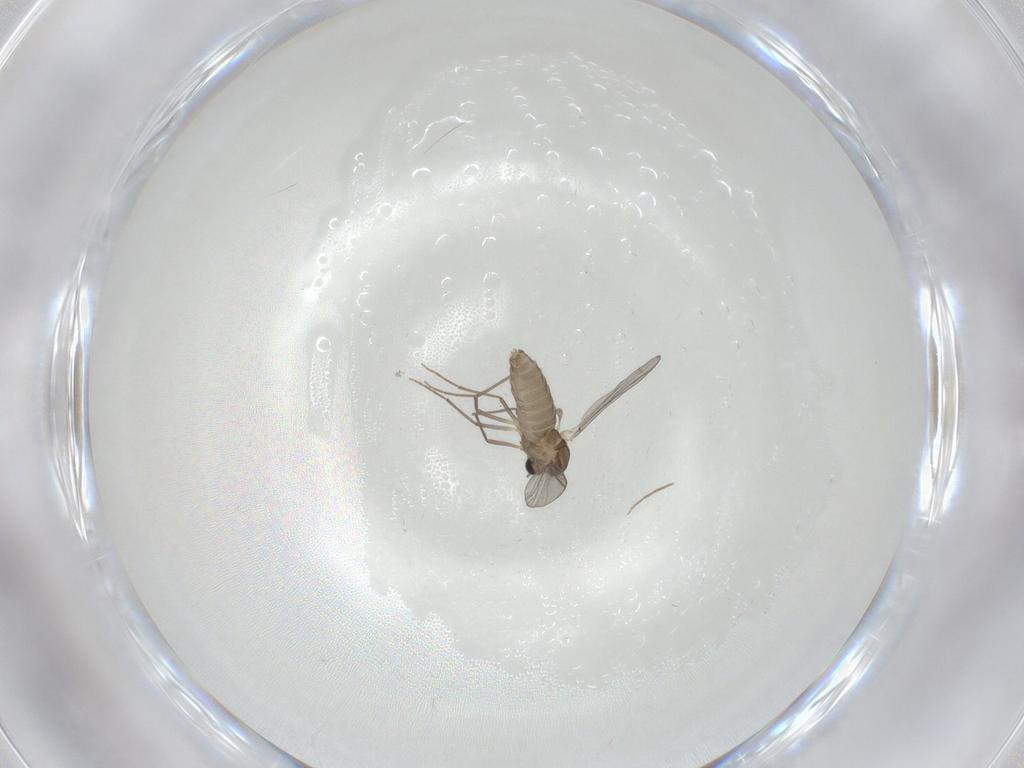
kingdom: Animalia
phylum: Arthropoda
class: Insecta
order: Diptera
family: Chironomidae
